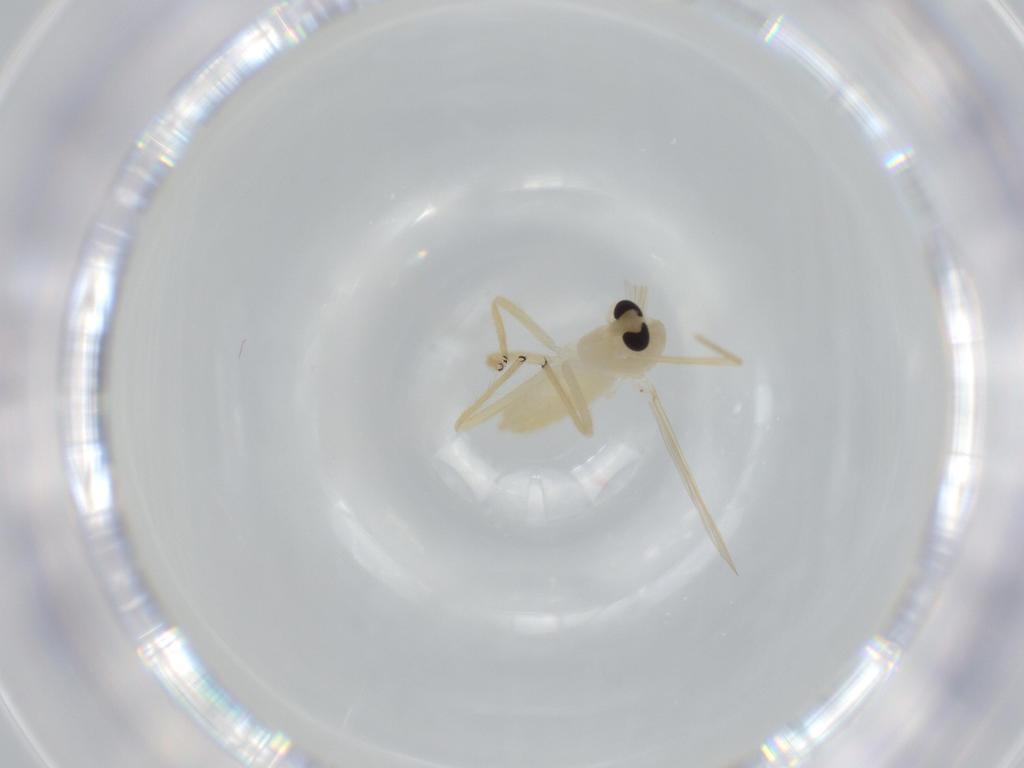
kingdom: Animalia
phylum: Arthropoda
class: Insecta
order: Diptera
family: Chironomidae
